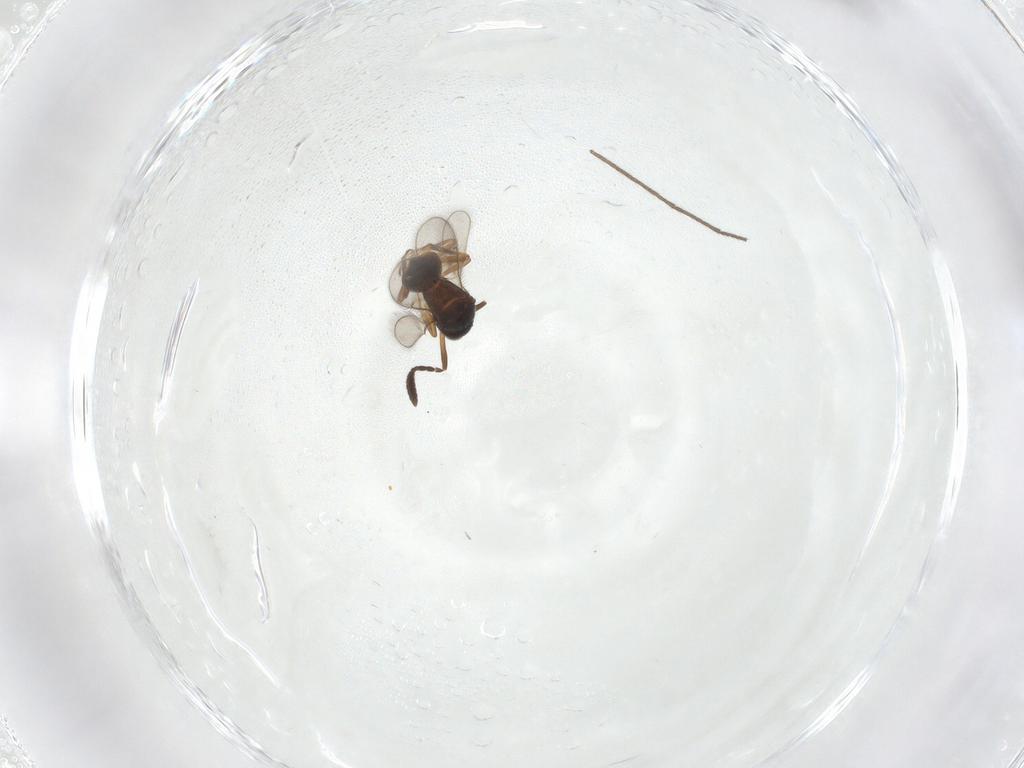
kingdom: Animalia
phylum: Arthropoda
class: Insecta
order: Hymenoptera
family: Scelionidae
